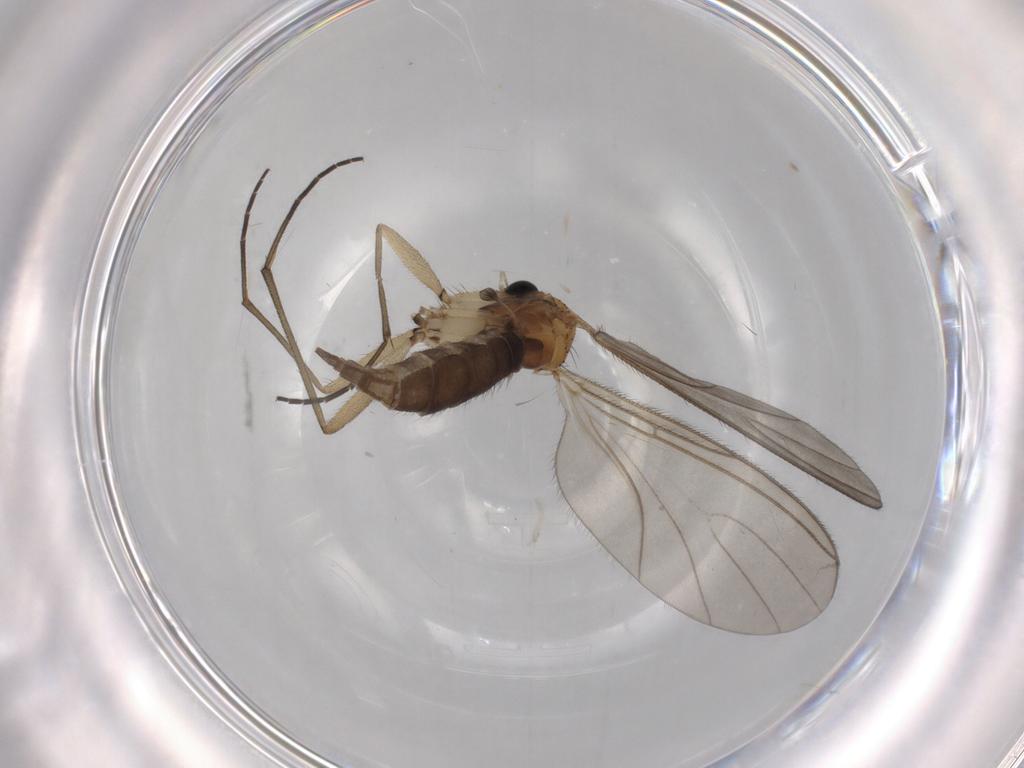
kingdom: Animalia
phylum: Arthropoda
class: Insecta
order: Diptera
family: Sciaridae
